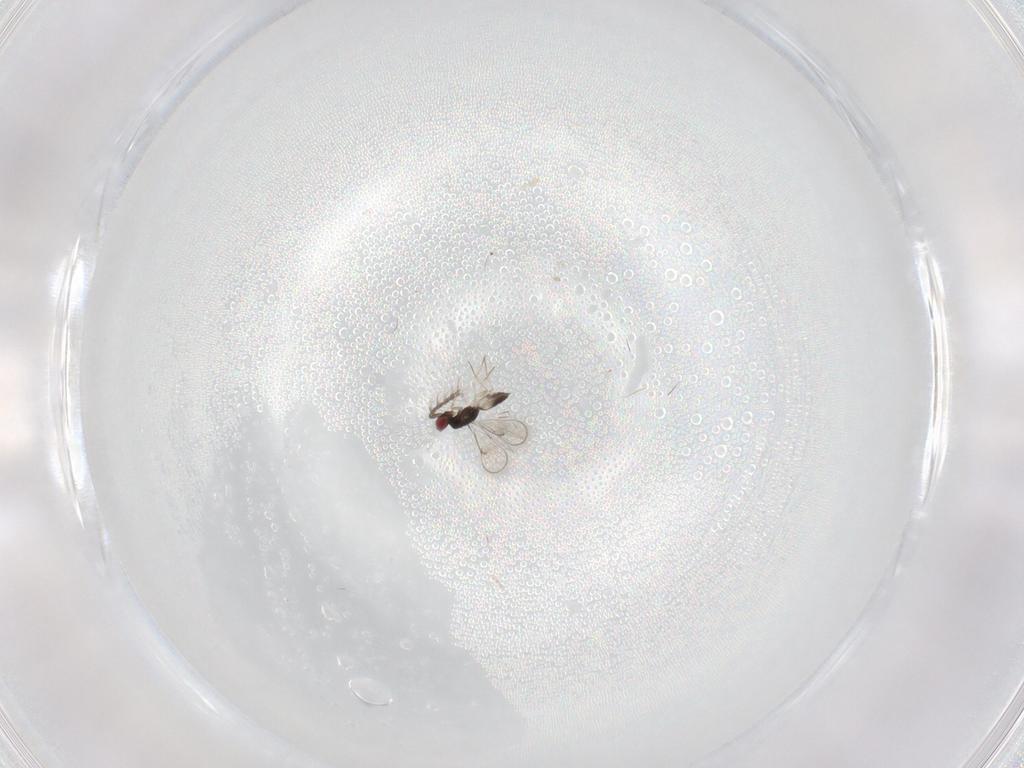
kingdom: Animalia
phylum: Arthropoda
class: Insecta
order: Hymenoptera
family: Eulophidae
